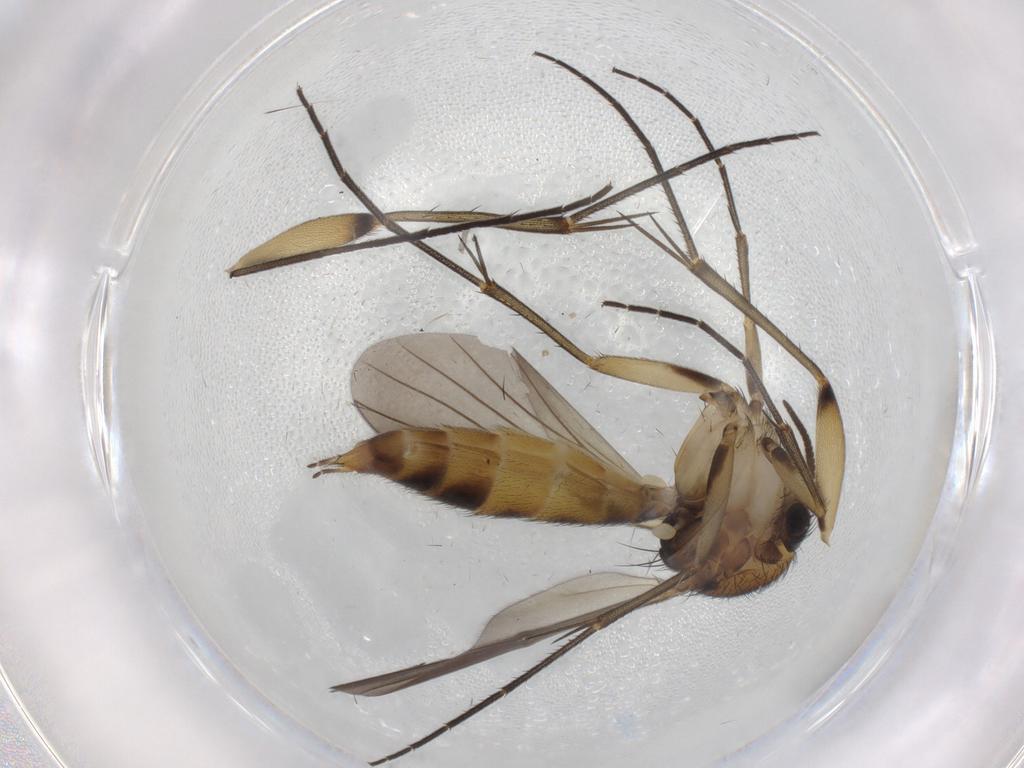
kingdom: Animalia
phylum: Arthropoda
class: Insecta
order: Diptera
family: Mycetophilidae
